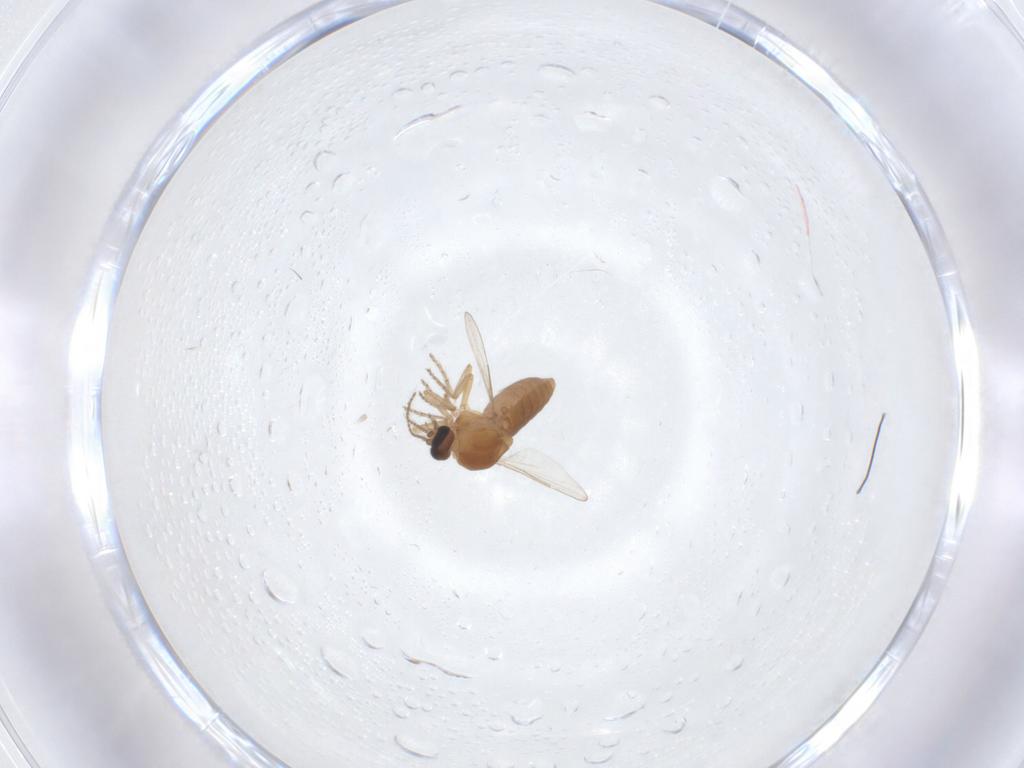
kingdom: Animalia
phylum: Arthropoda
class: Insecta
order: Diptera
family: Ceratopogonidae
